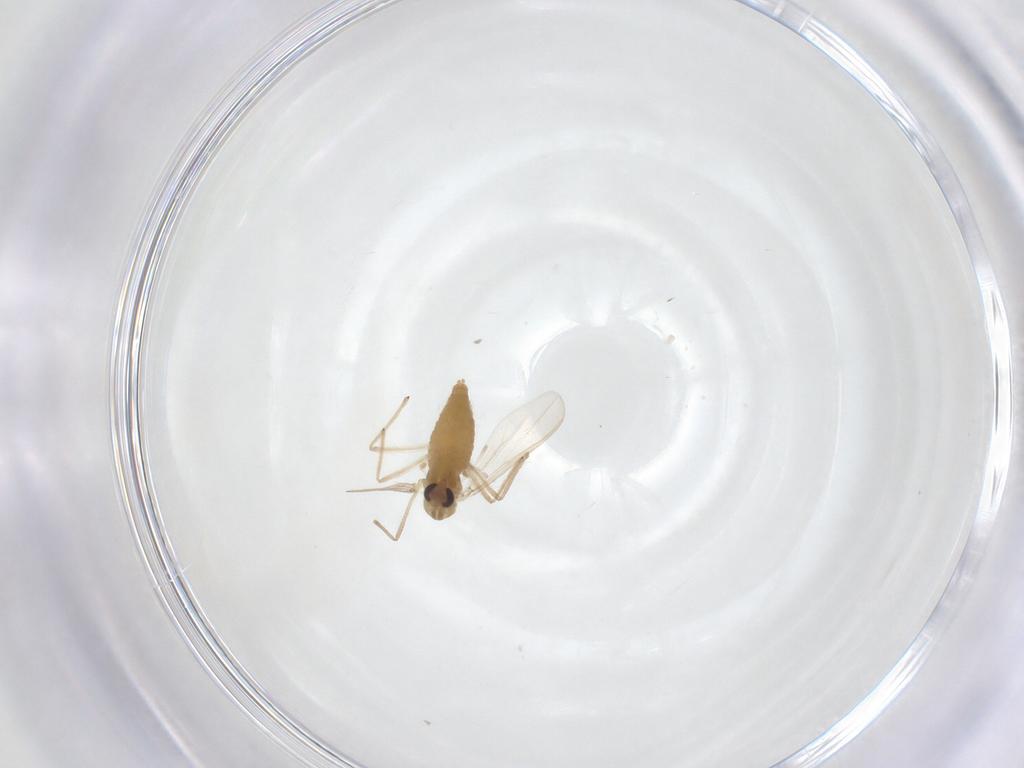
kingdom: Animalia
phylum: Arthropoda
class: Insecta
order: Diptera
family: Chironomidae
